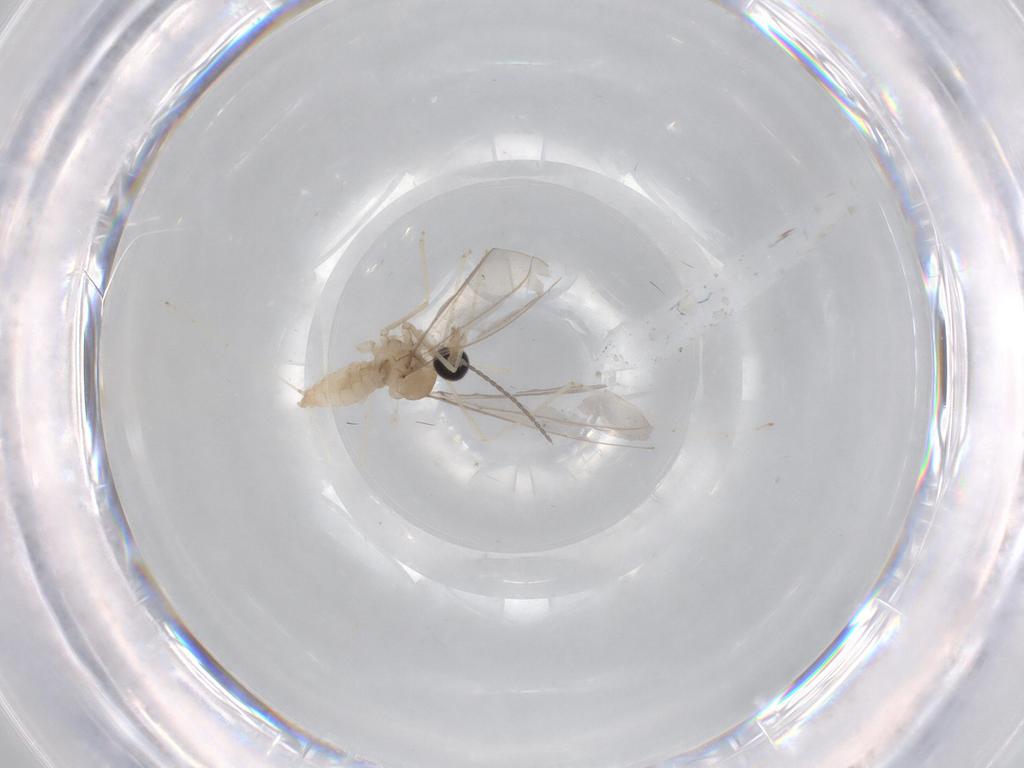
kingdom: Animalia
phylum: Arthropoda
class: Insecta
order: Diptera
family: Cecidomyiidae
